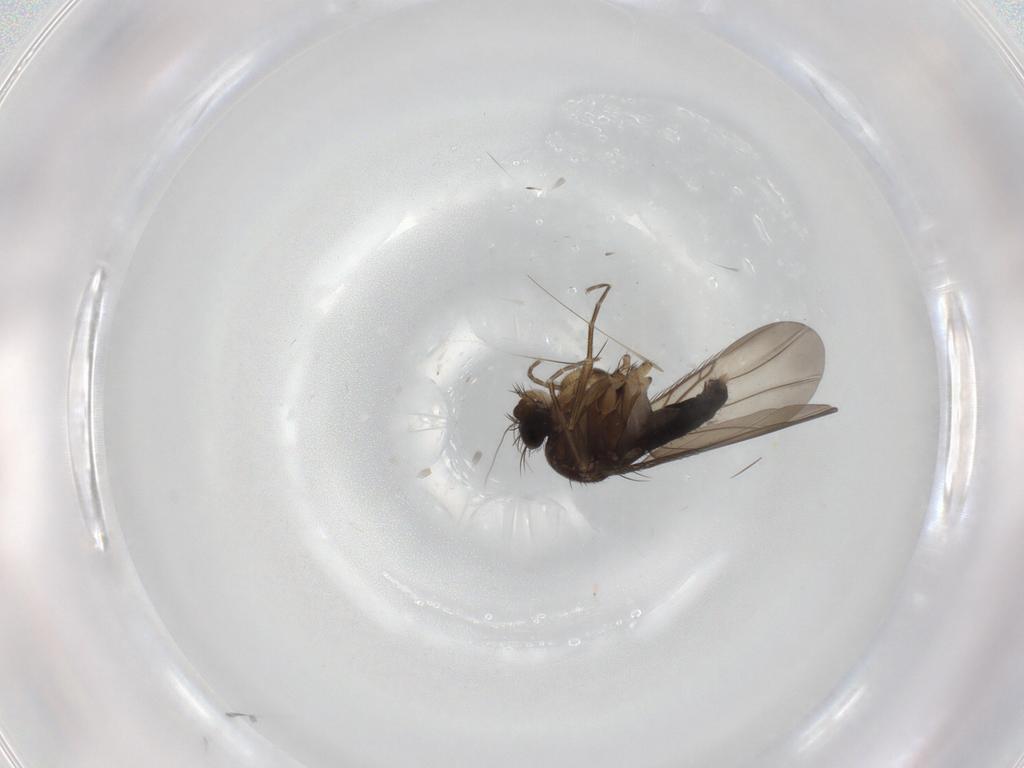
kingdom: Animalia
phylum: Arthropoda
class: Insecta
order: Diptera
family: Phoridae
